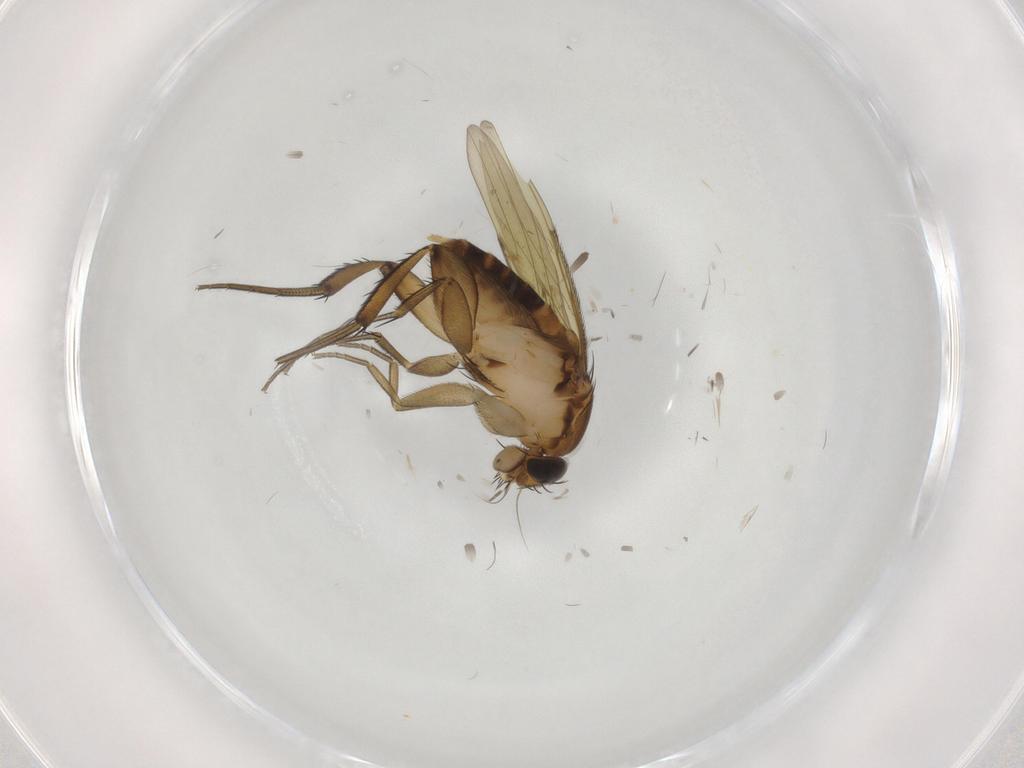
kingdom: Animalia
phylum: Arthropoda
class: Insecta
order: Diptera
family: Phoridae
